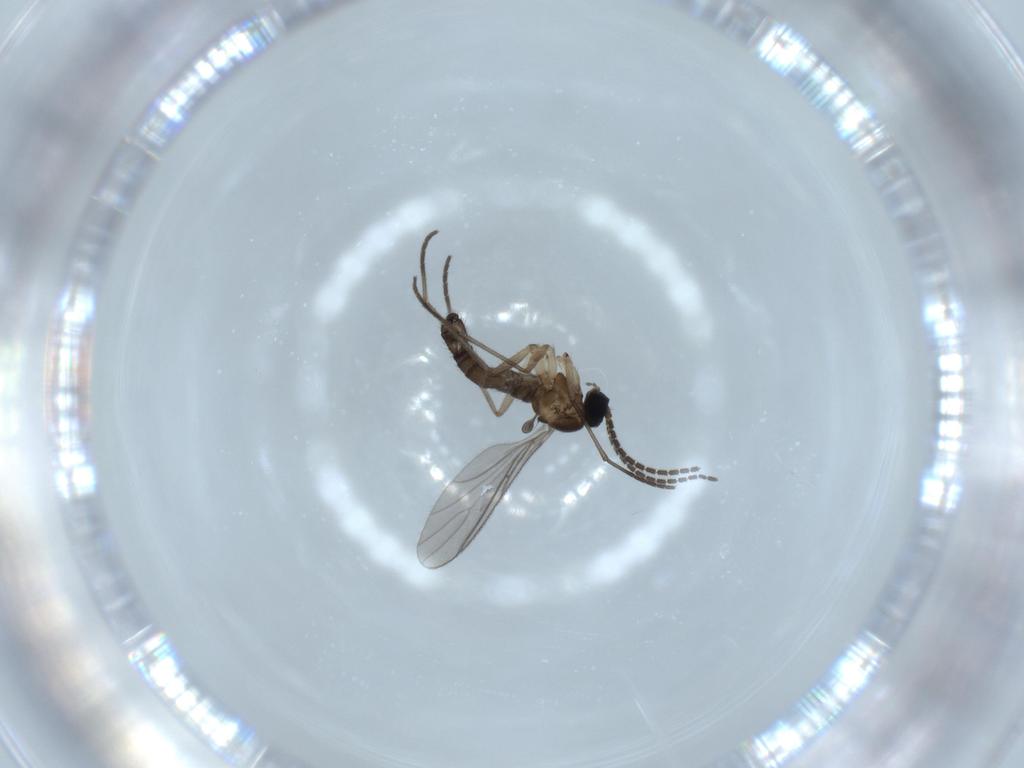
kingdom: Animalia
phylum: Arthropoda
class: Insecta
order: Diptera
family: Sciaridae
